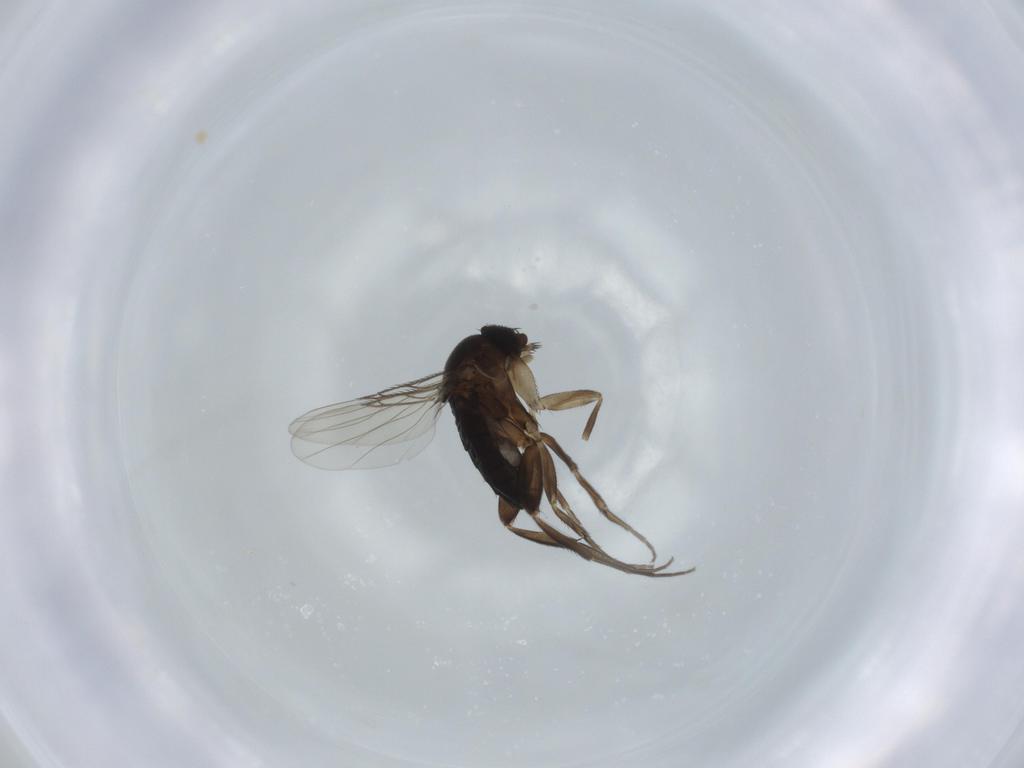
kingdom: Animalia
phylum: Arthropoda
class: Insecta
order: Diptera
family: Phoridae
